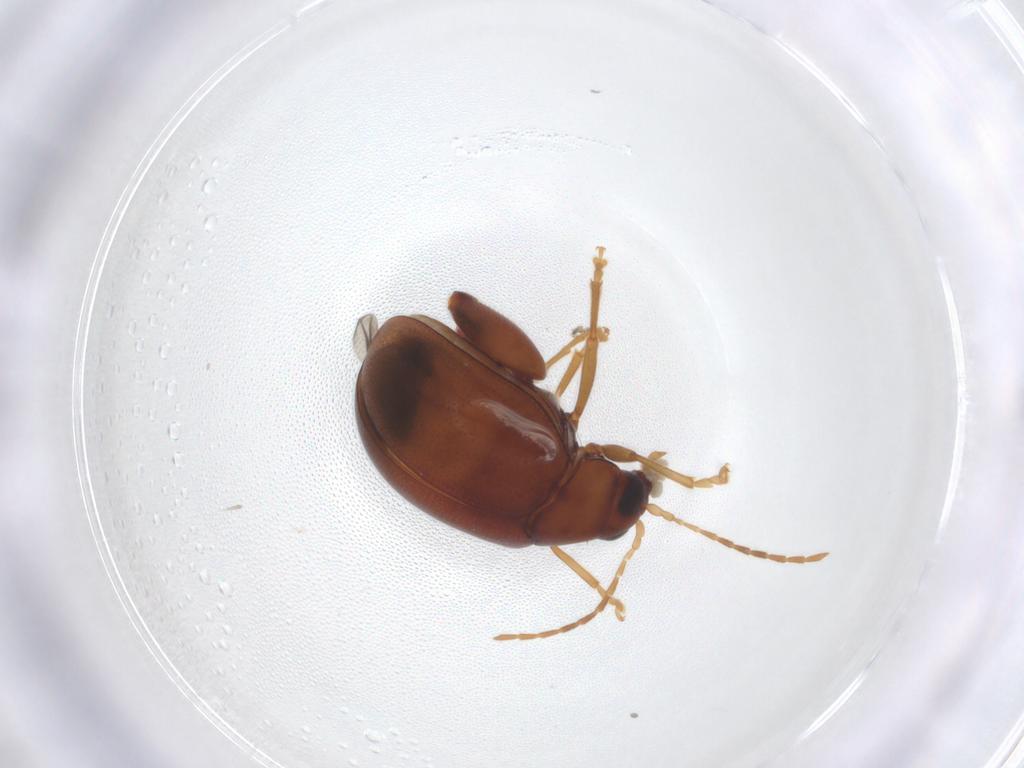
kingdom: Animalia
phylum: Arthropoda
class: Insecta
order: Coleoptera
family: Chrysomelidae
